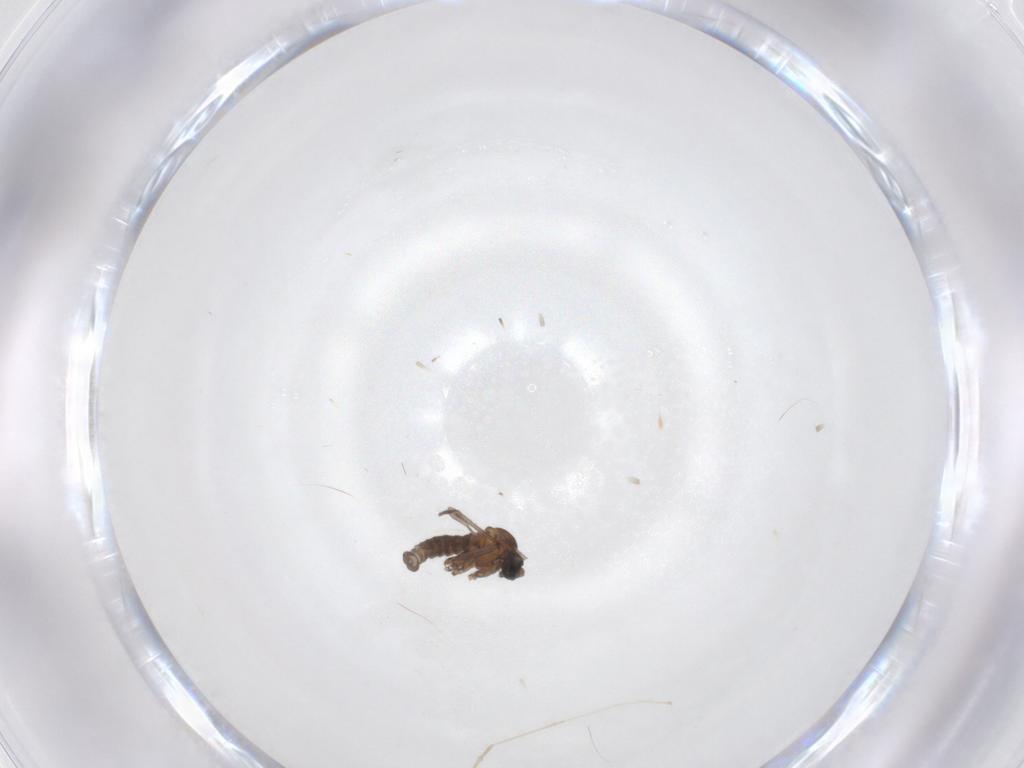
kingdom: Animalia
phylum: Arthropoda
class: Insecta
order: Diptera
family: Sciaridae
